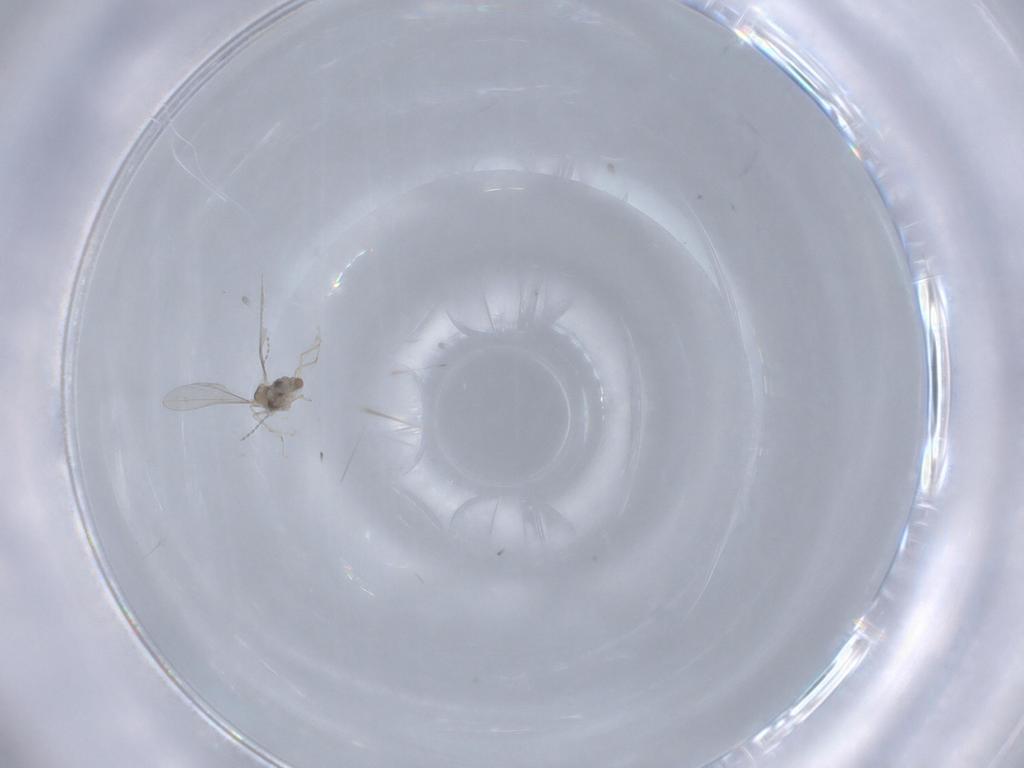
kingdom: Animalia
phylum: Arthropoda
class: Insecta
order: Diptera
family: Cecidomyiidae
